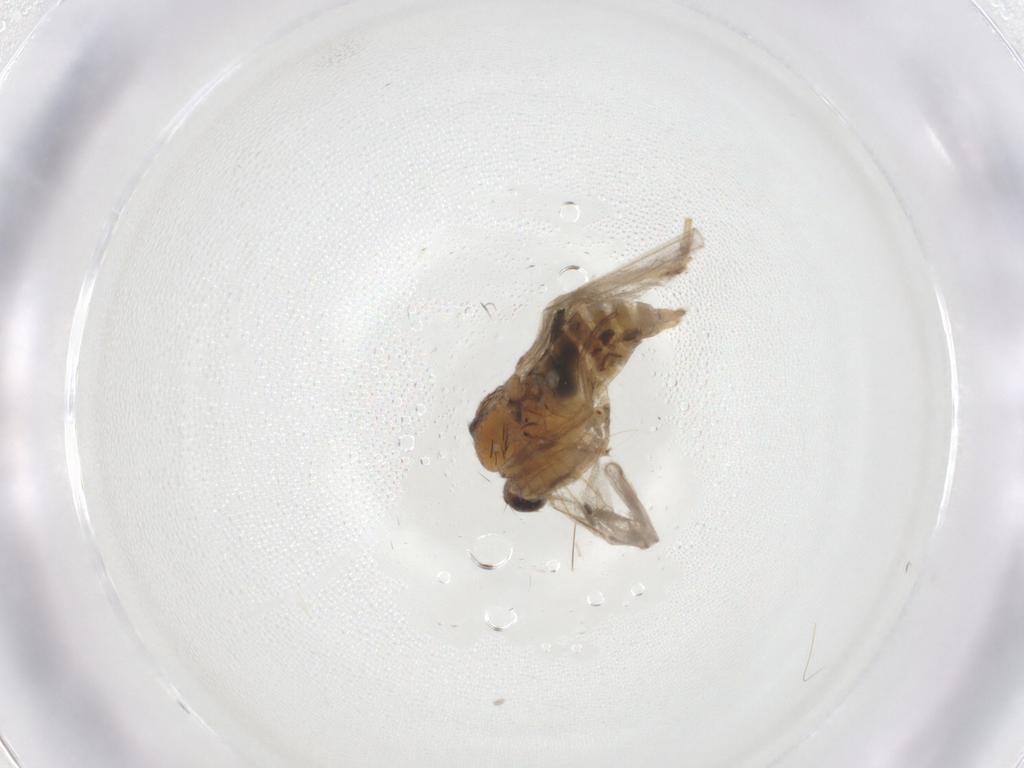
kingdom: Animalia
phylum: Arthropoda
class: Insecta
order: Diptera
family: Hybotidae
